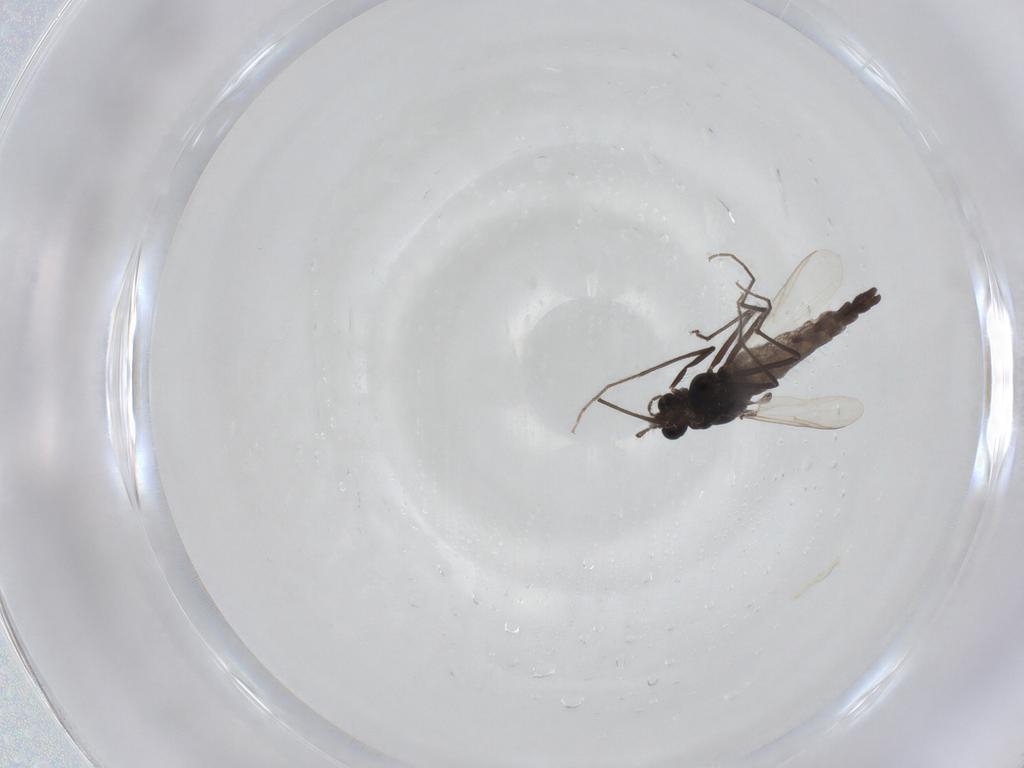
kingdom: Animalia
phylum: Arthropoda
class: Insecta
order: Diptera
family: Chironomidae
